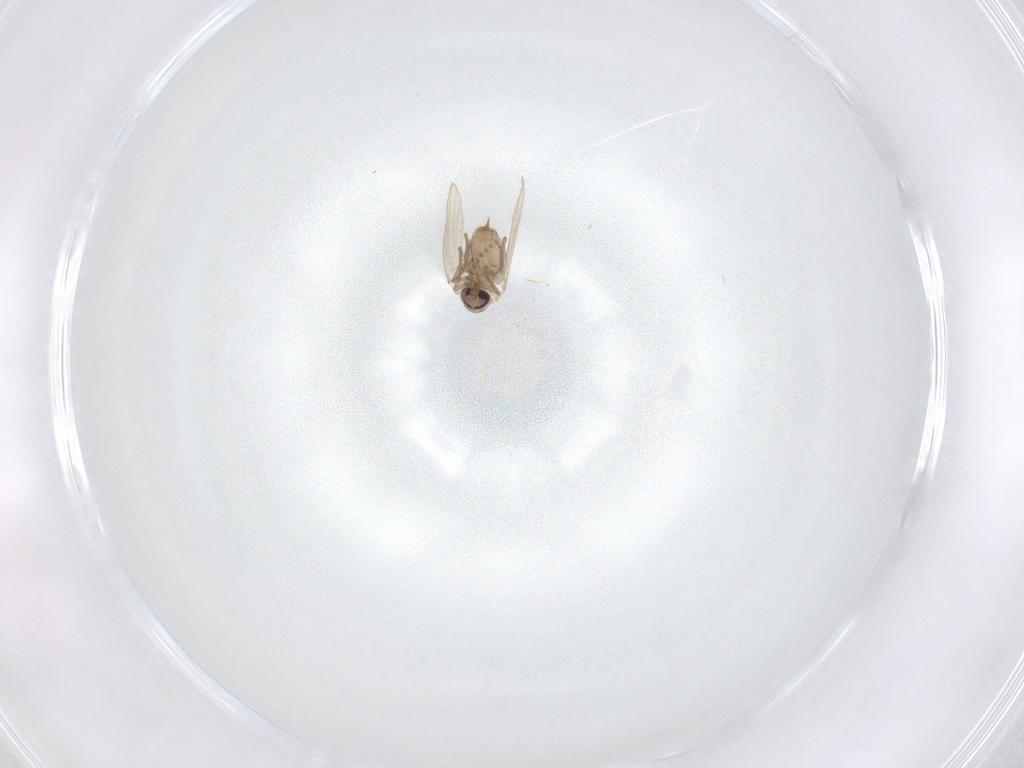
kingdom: Animalia
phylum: Arthropoda
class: Insecta
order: Diptera
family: Psychodidae
